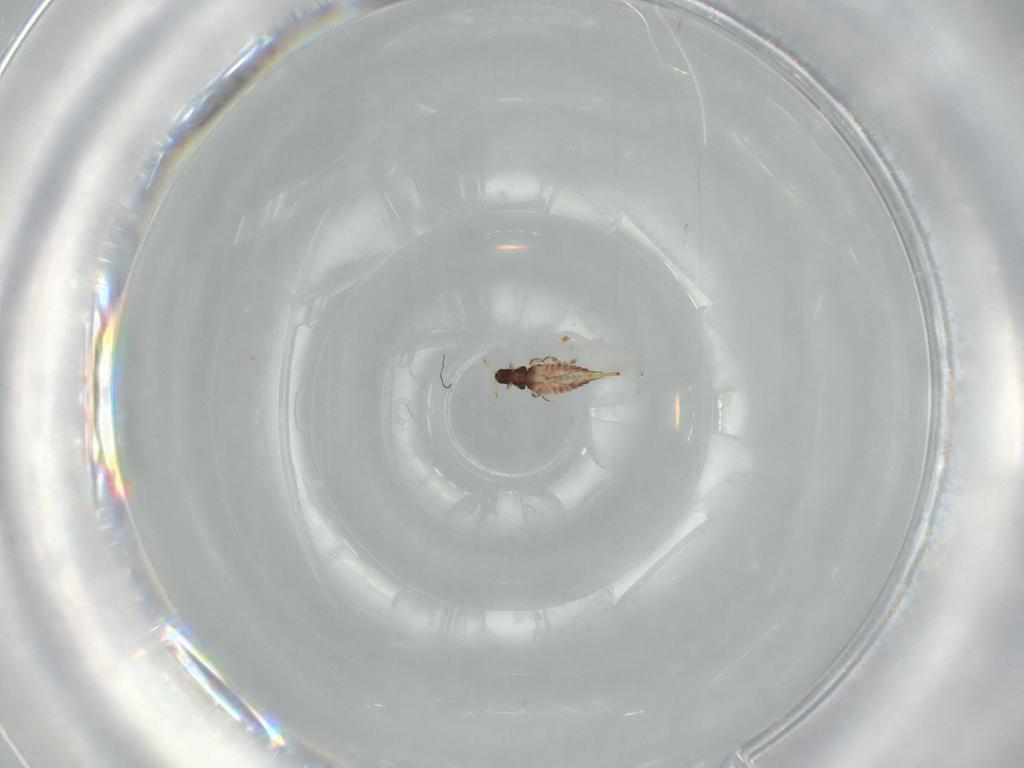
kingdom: Animalia
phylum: Arthropoda
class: Insecta
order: Thysanoptera
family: Phlaeothripidae
